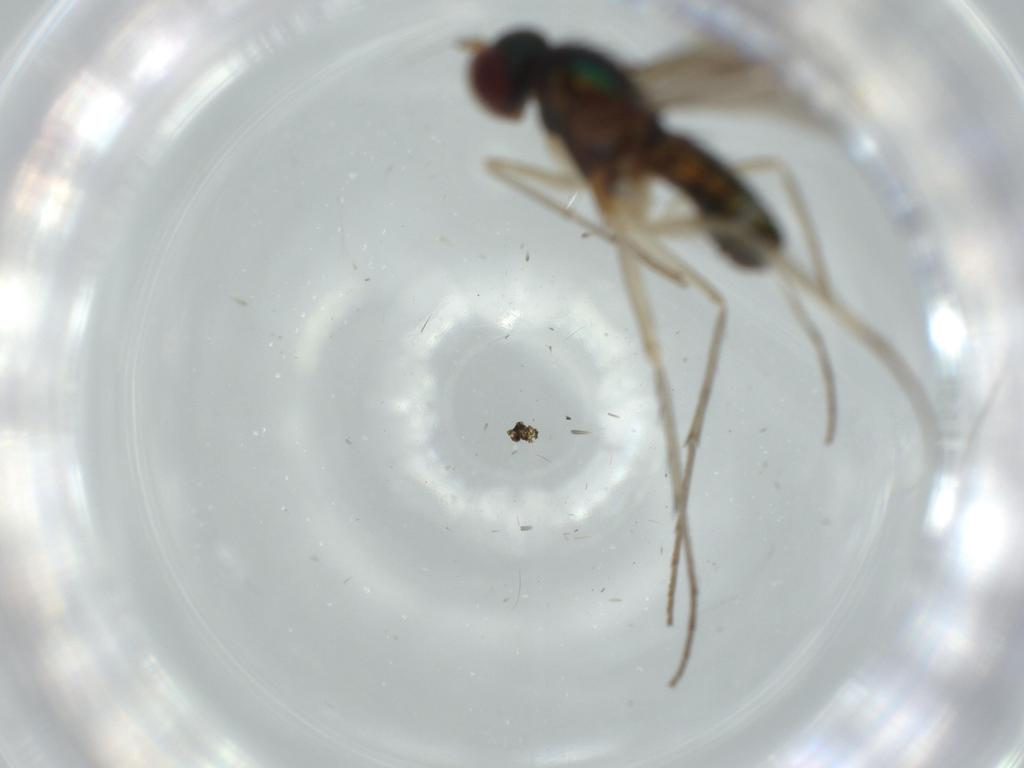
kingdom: Animalia
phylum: Arthropoda
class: Insecta
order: Diptera
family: Dolichopodidae
